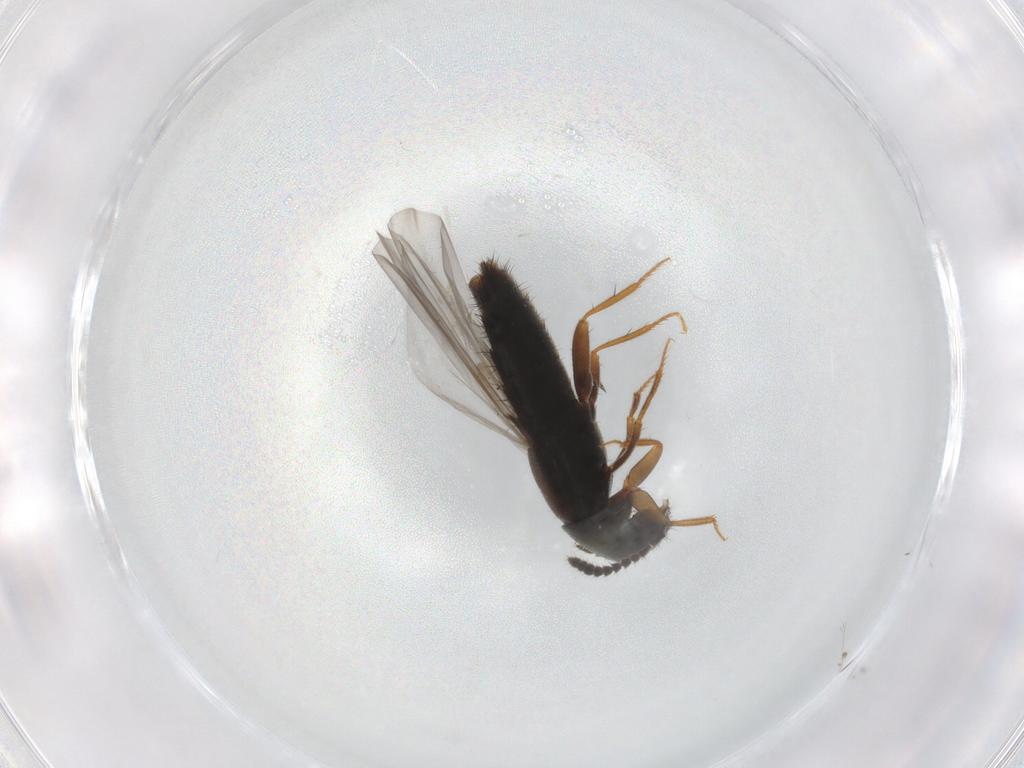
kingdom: Animalia
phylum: Arthropoda
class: Insecta
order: Coleoptera
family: Staphylinidae
